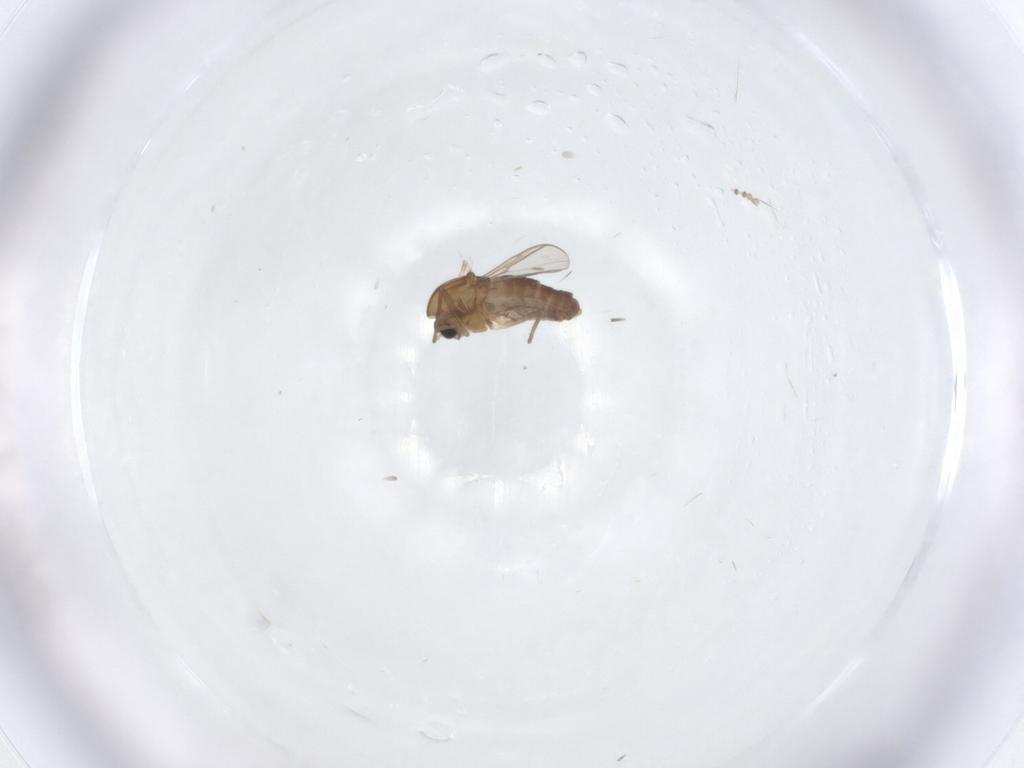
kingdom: Animalia
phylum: Arthropoda
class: Insecta
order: Diptera
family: Chironomidae
